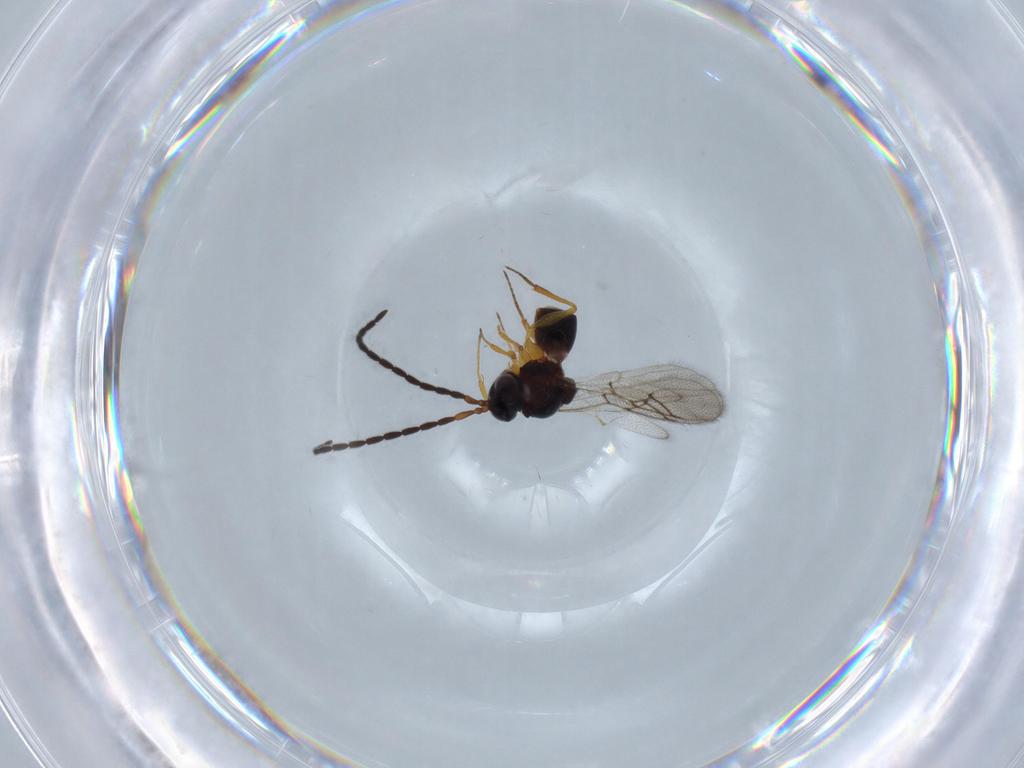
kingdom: Animalia
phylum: Arthropoda
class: Insecta
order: Hymenoptera
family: Figitidae
